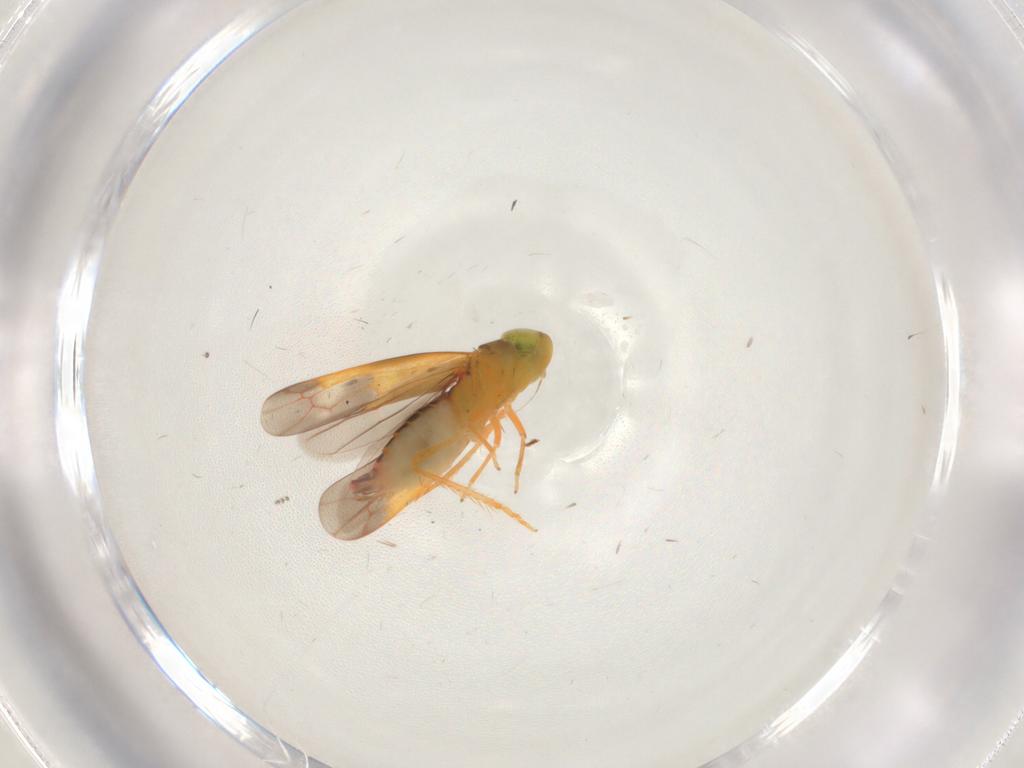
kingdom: Animalia
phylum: Arthropoda
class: Insecta
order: Hemiptera
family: Cicadellidae
